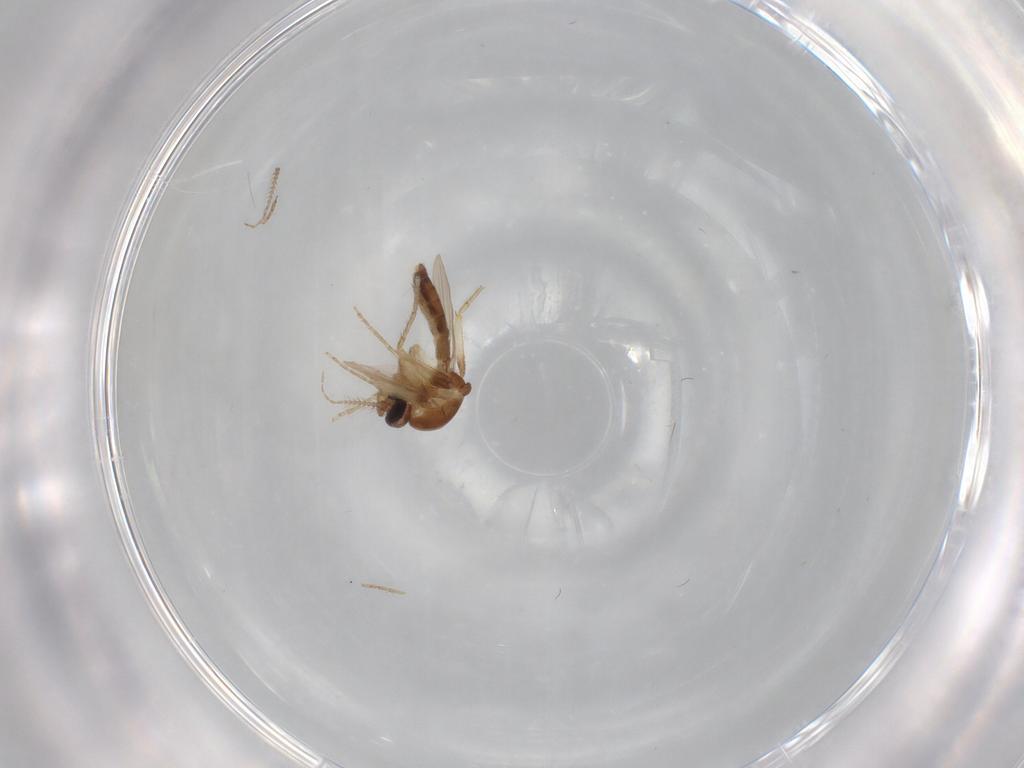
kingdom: Animalia
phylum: Arthropoda
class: Insecta
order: Diptera
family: Ceratopogonidae
